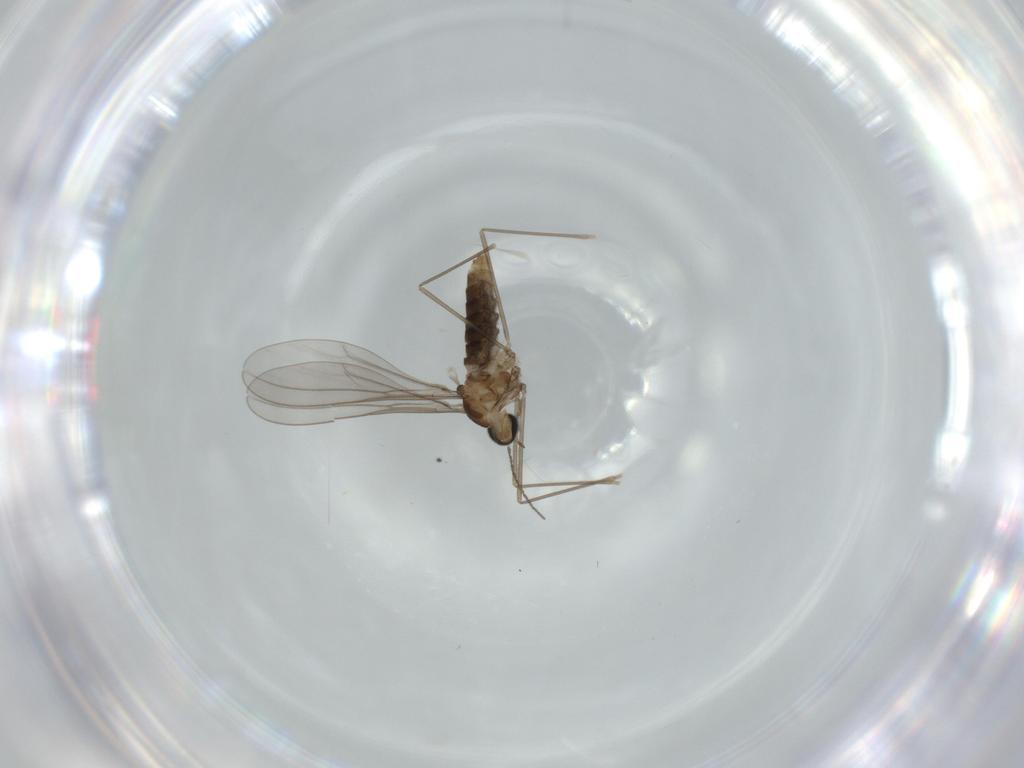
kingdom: Animalia
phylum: Arthropoda
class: Insecta
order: Diptera
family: Cecidomyiidae
